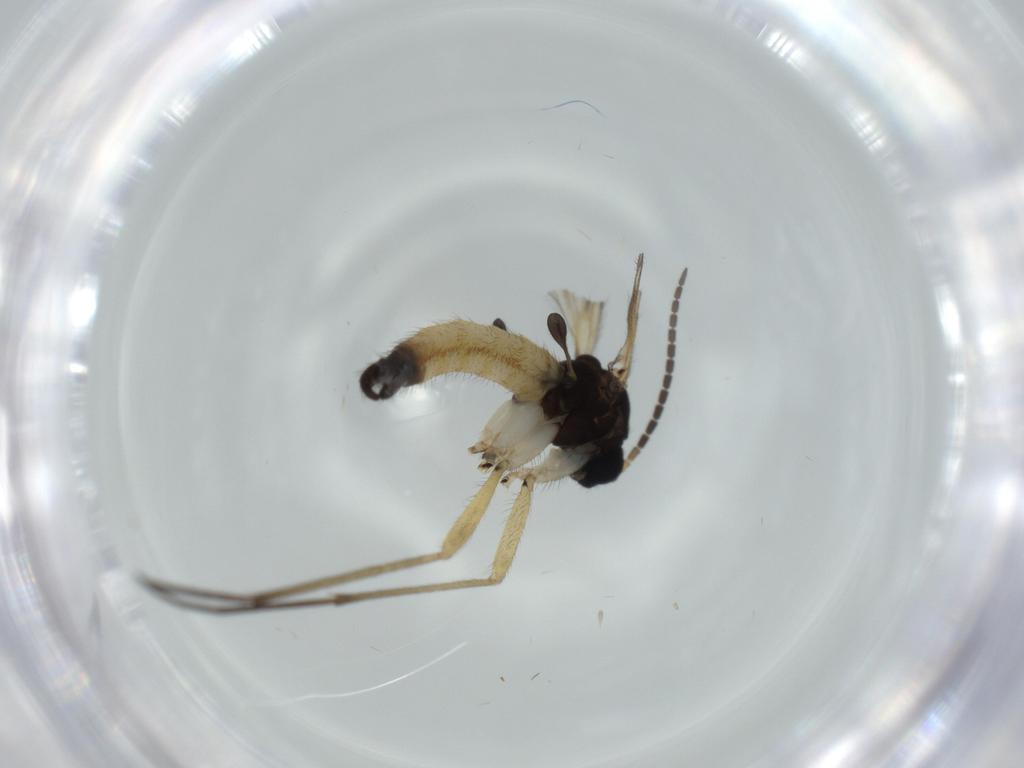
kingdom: Animalia
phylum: Arthropoda
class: Insecta
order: Diptera
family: Sciaridae
